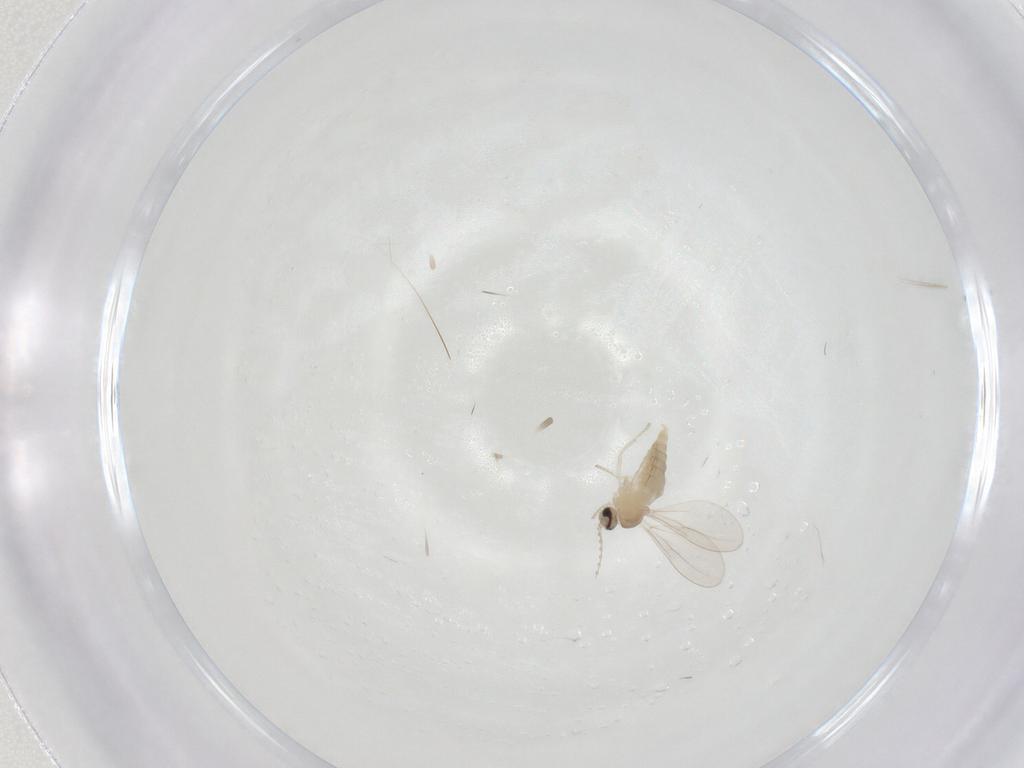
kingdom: Animalia
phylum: Arthropoda
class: Insecta
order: Diptera
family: Cecidomyiidae
